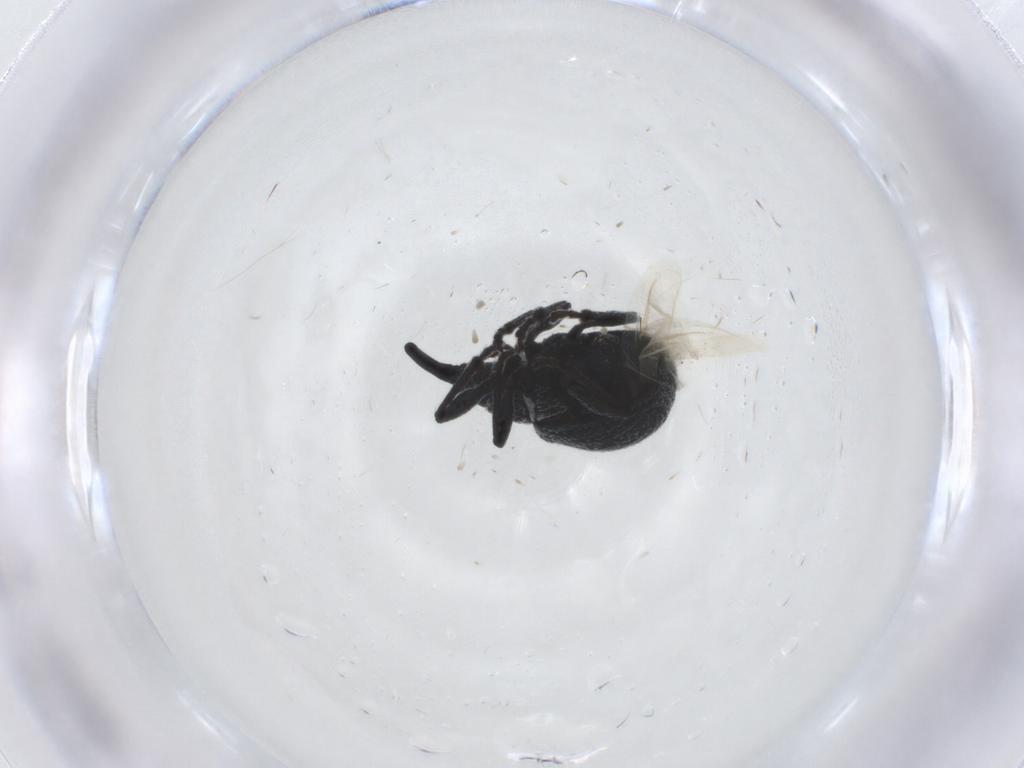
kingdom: Animalia
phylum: Arthropoda
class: Insecta
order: Coleoptera
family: Brentidae
